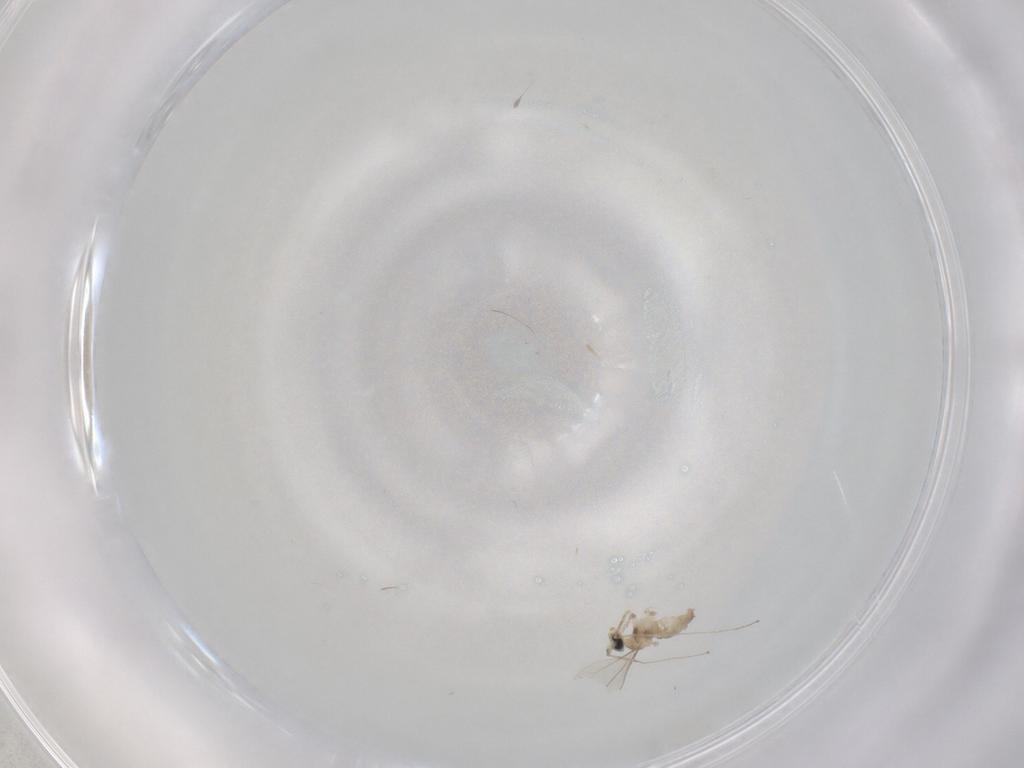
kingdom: Animalia
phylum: Arthropoda
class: Insecta
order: Diptera
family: Cecidomyiidae
